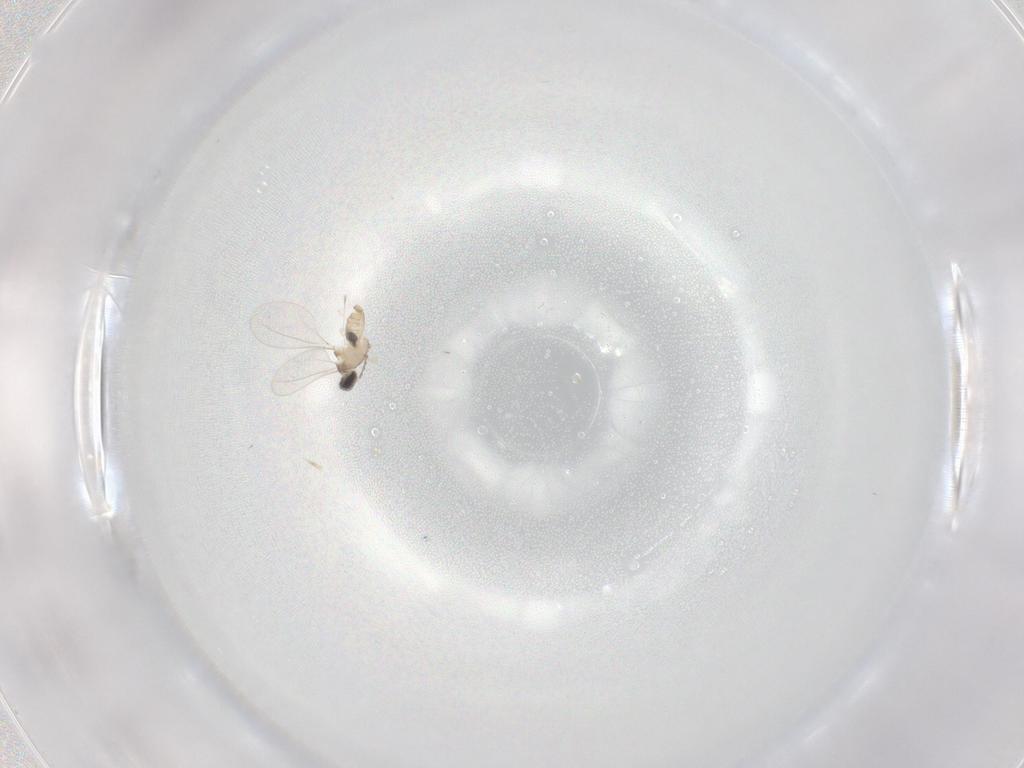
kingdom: Animalia
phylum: Arthropoda
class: Insecta
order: Diptera
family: Cecidomyiidae
